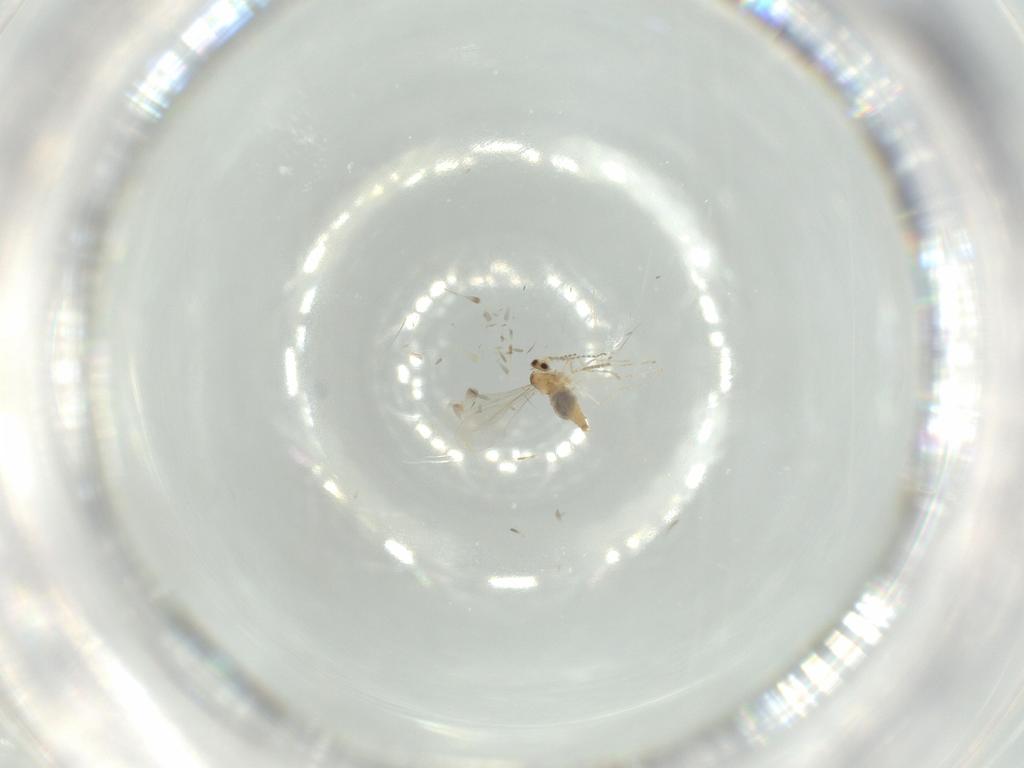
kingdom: Animalia
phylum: Arthropoda
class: Insecta
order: Diptera
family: Cecidomyiidae
